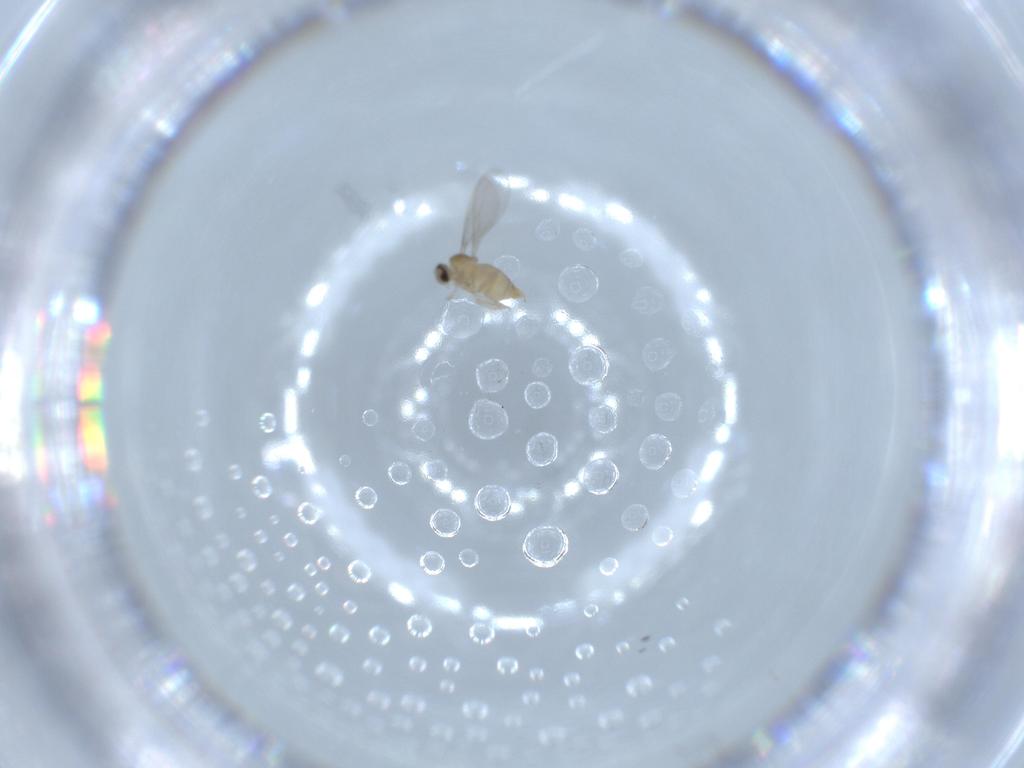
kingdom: Animalia
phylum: Arthropoda
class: Insecta
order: Diptera
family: Cecidomyiidae
